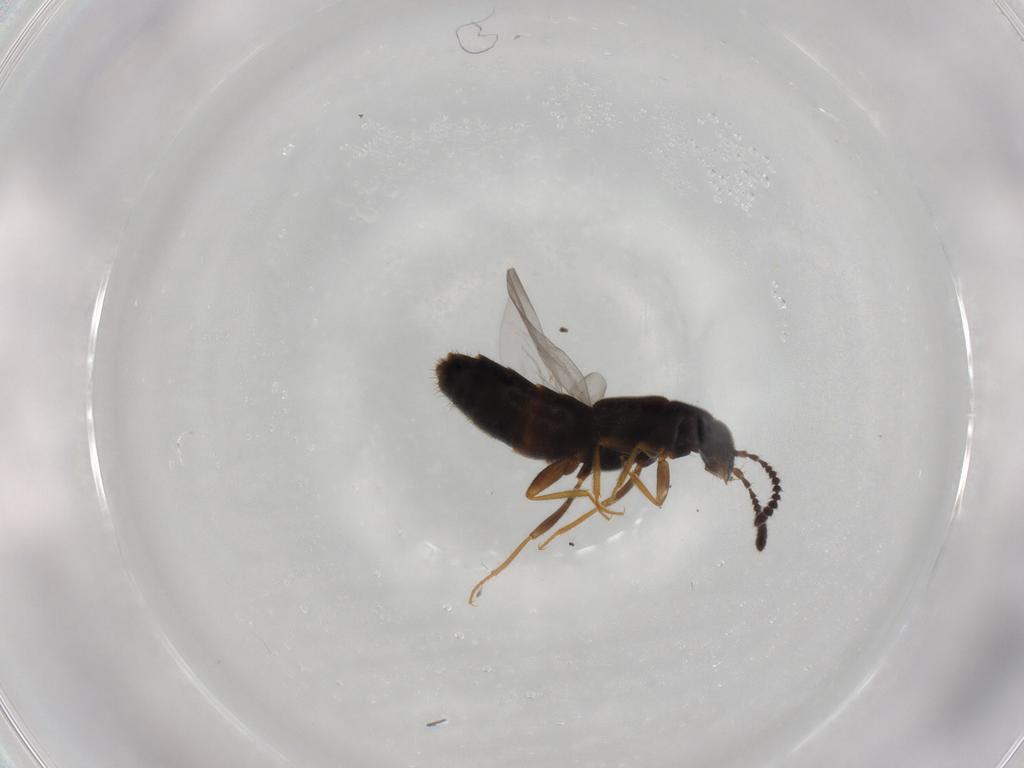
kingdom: Animalia
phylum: Arthropoda
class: Insecta
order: Coleoptera
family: Staphylinidae
